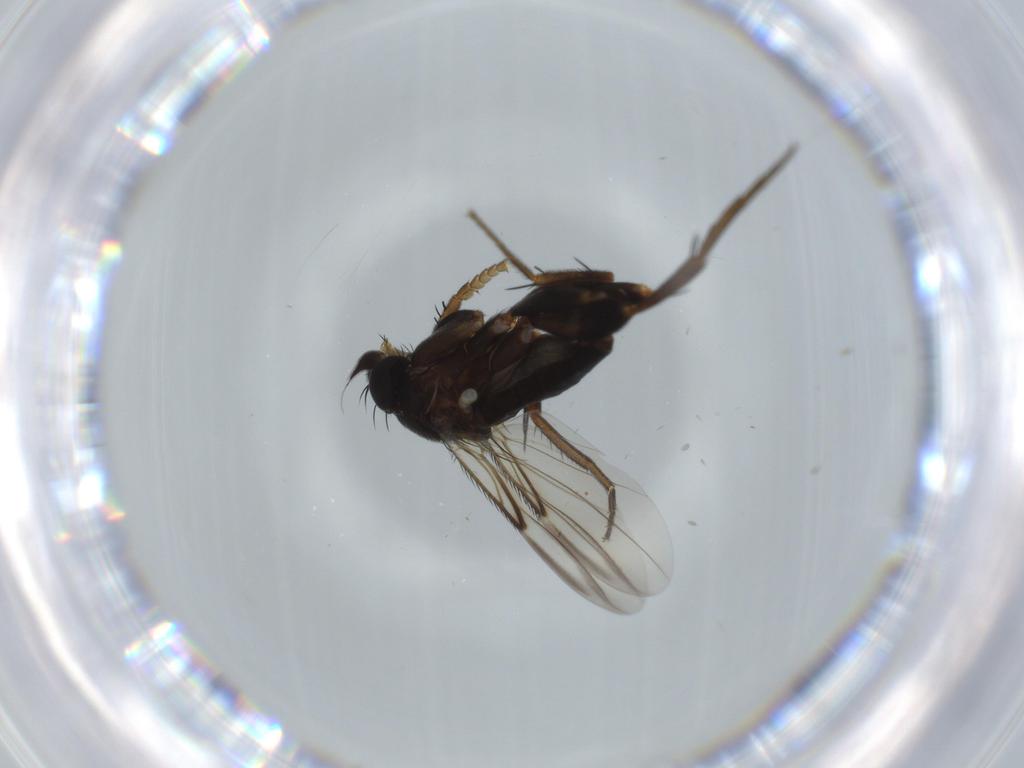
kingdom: Animalia
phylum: Arthropoda
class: Insecta
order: Diptera
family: Phoridae
